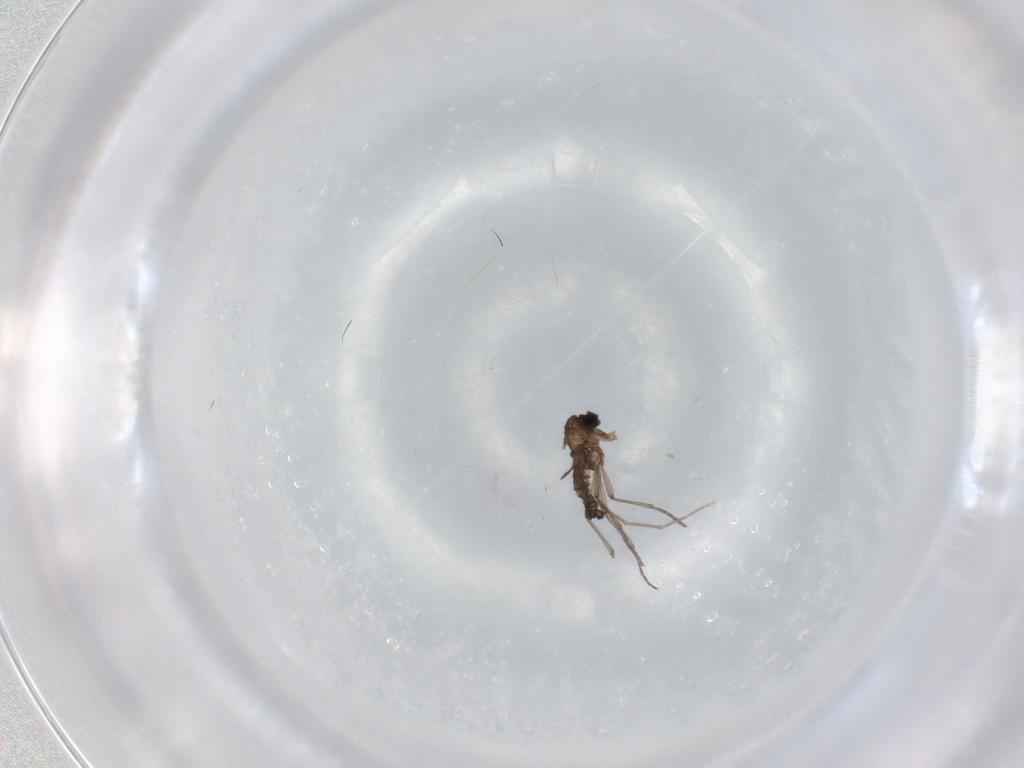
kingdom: Animalia
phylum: Arthropoda
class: Insecta
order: Diptera
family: Sciaridae
